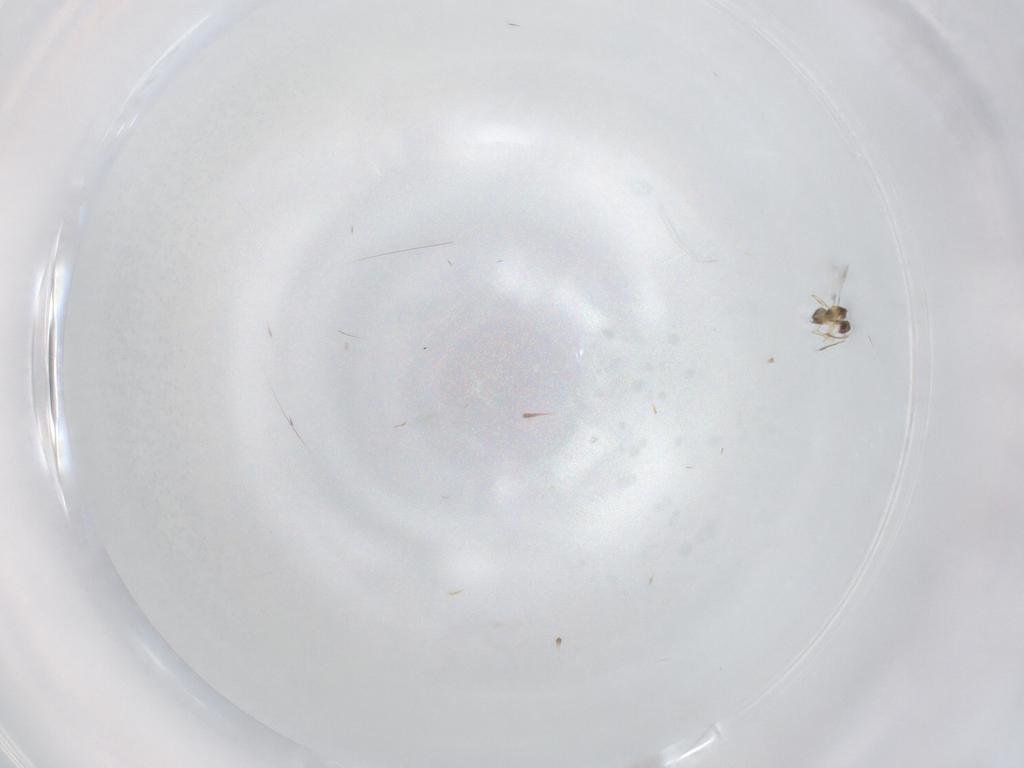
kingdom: Animalia
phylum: Arthropoda
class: Insecta
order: Hymenoptera
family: Mymaridae
